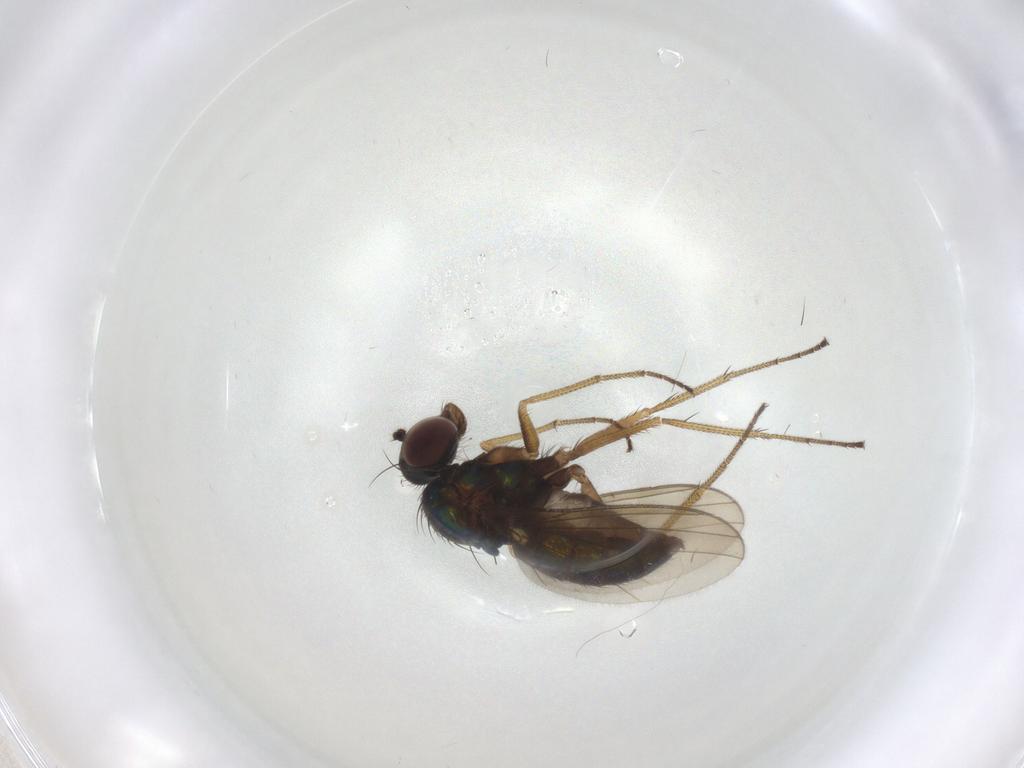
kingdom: Animalia
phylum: Arthropoda
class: Insecta
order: Diptera
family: Dolichopodidae
